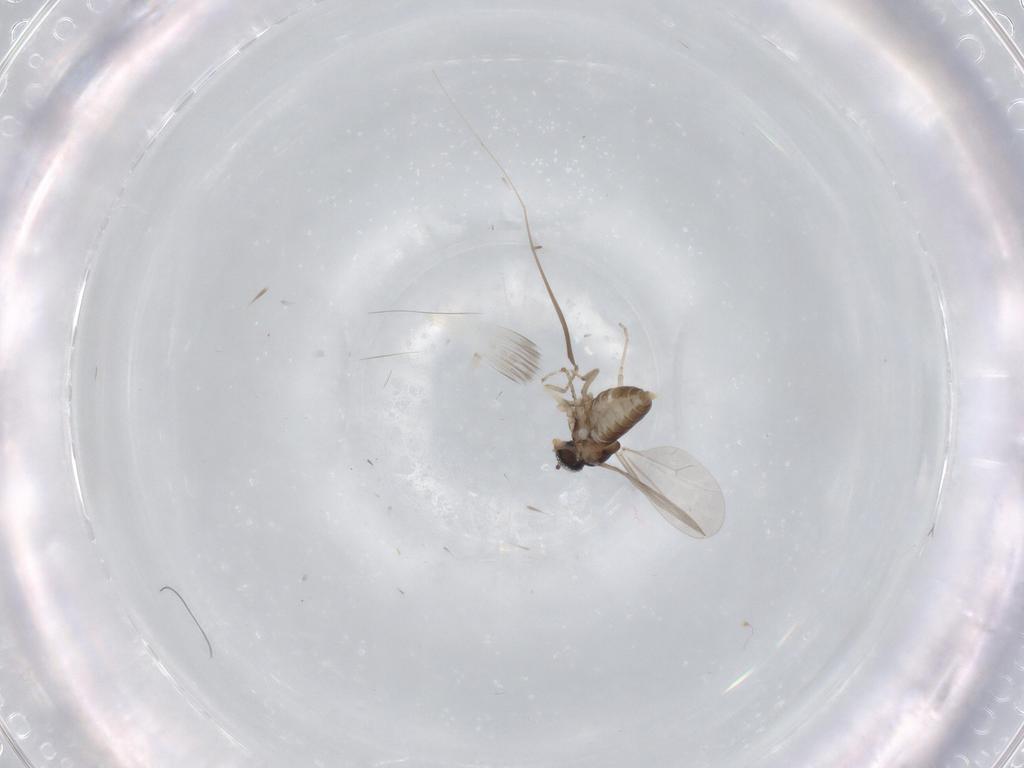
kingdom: Animalia
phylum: Arthropoda
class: Insecta
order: Diptera
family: Cecidomyiidae
